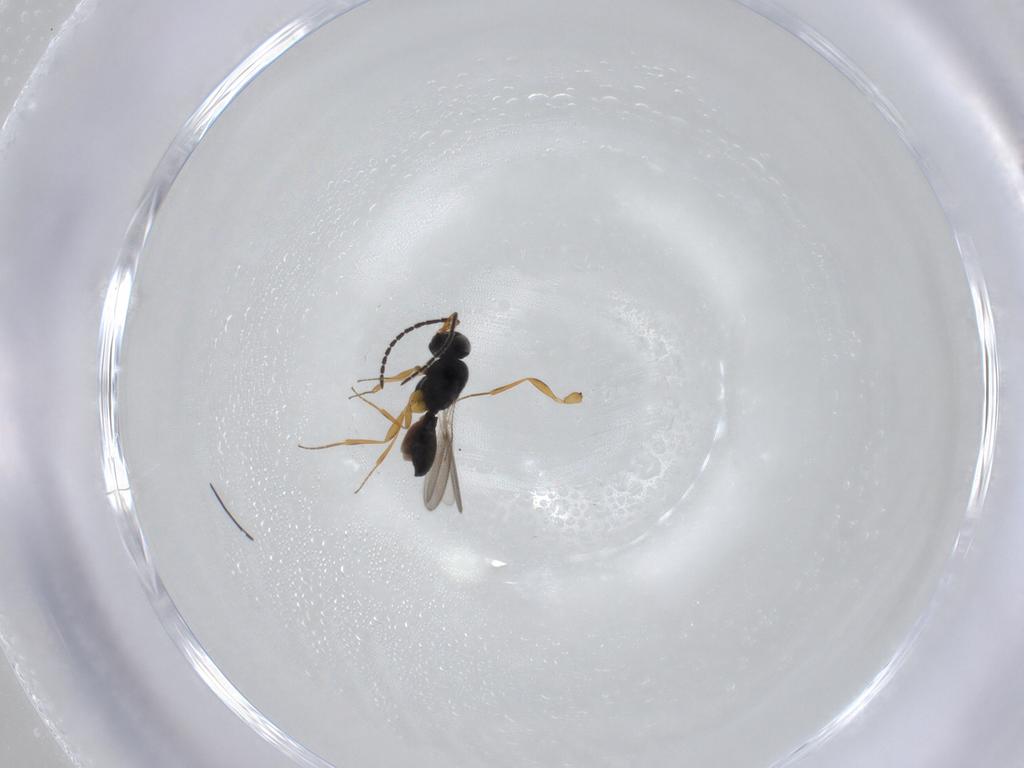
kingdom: Animalia
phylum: Arthropoda
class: Insecta
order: Hymenoptera
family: Scelionidae
